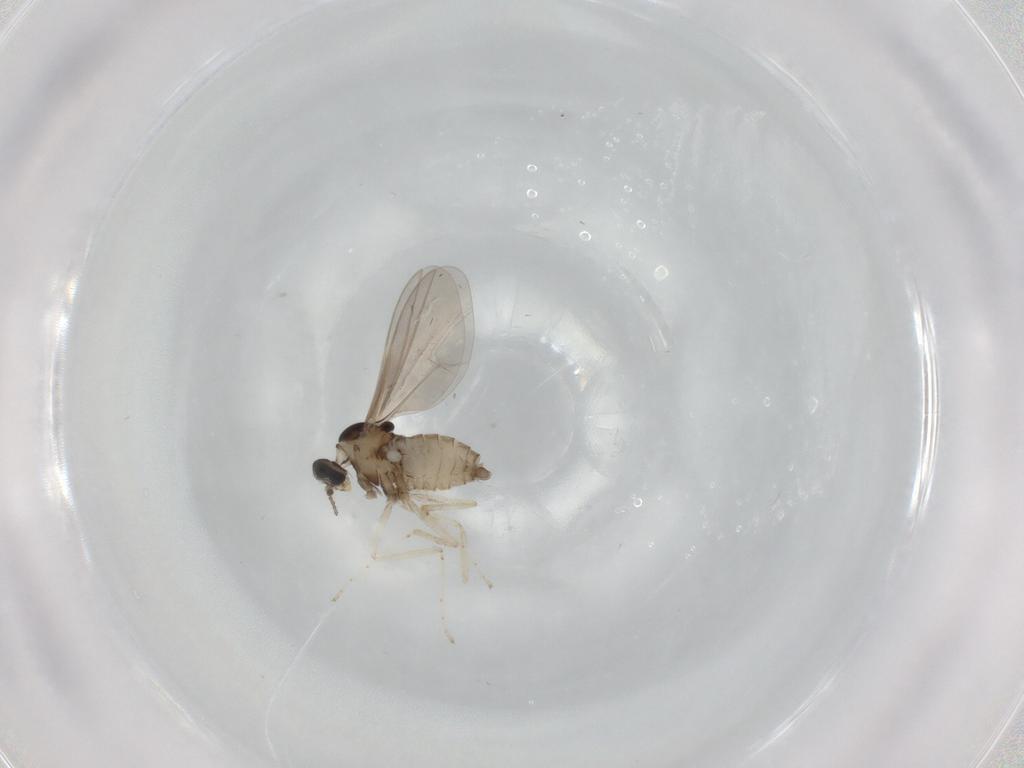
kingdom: Animalia
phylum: Arthropoda
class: Insecta
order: Diptera
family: Cecidomyiidae
